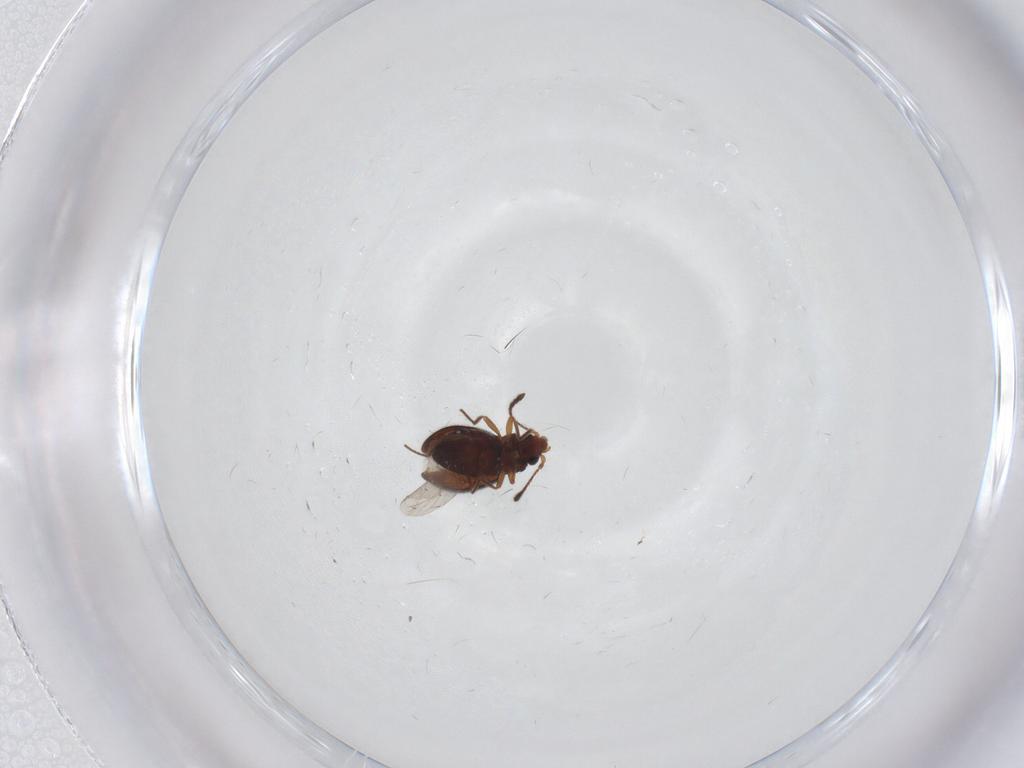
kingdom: Animalia
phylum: Arthropoda
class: Insecta
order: Coleoptera
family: Cryptophagidae
